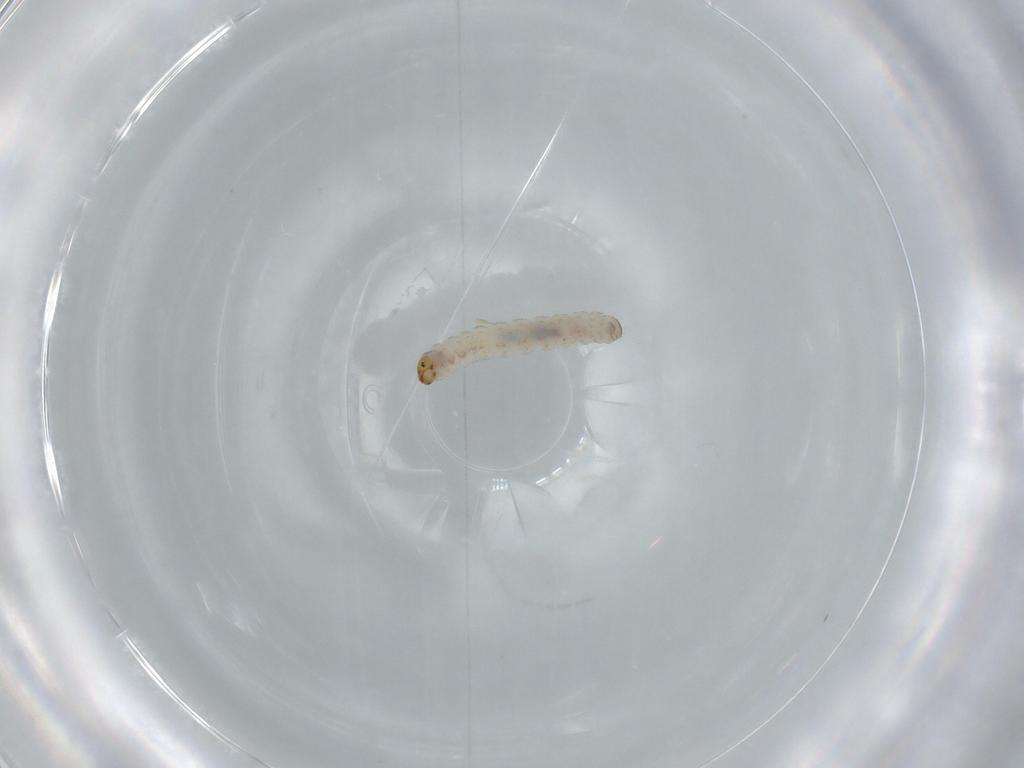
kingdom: Animalia
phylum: Arthropoda
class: Insecta
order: Lepidoptera
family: Tineidae
